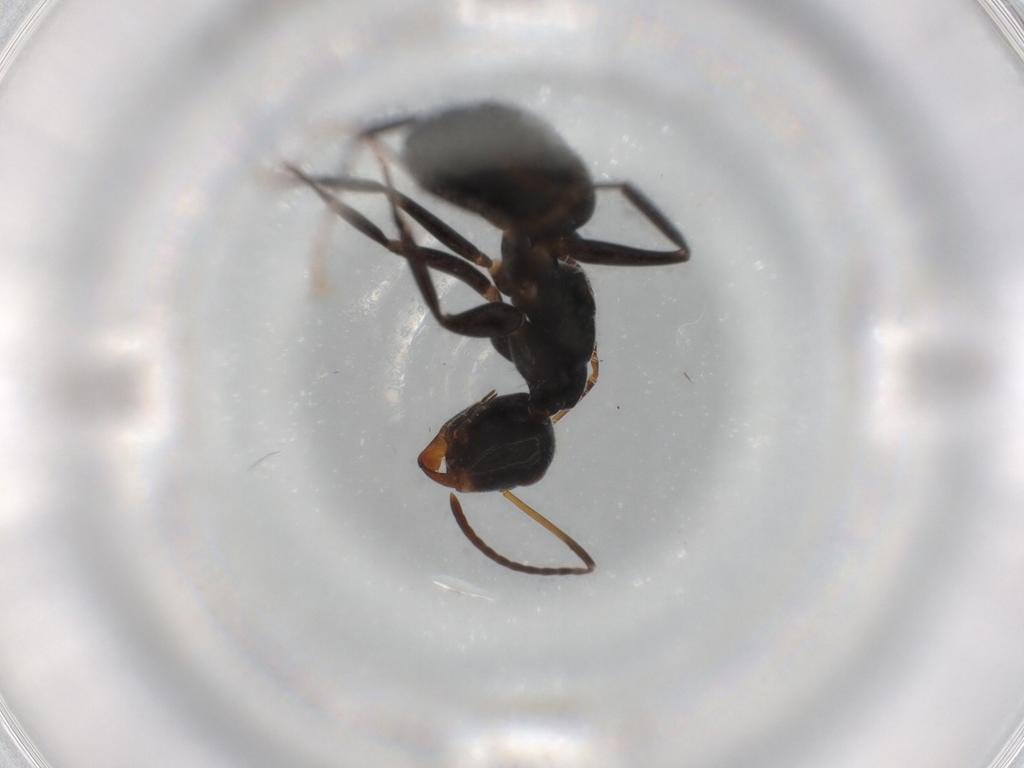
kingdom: Animalia
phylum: Arthropoda
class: Insecta
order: Hymenoptera
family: Formicidae
